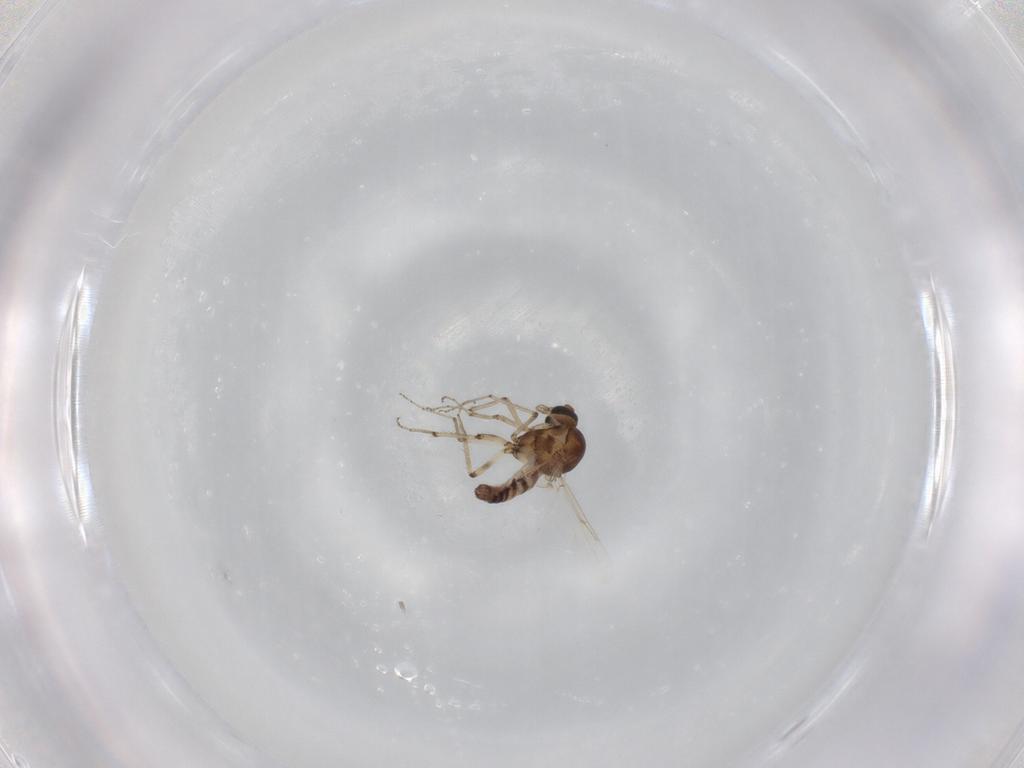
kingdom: Animalia
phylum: Arthropoda
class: Insecta
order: Diptera
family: Ceratopogonidae
